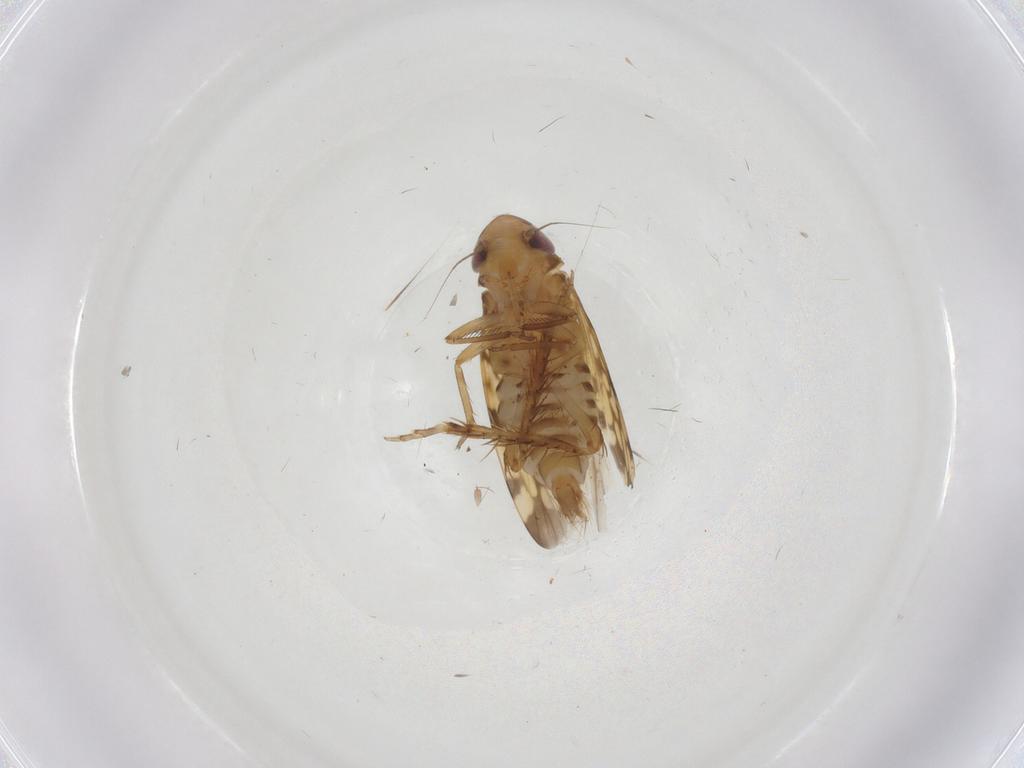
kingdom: Animalia
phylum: Arthropoda
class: Insecta
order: Hemiptera
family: Cicadellidae
